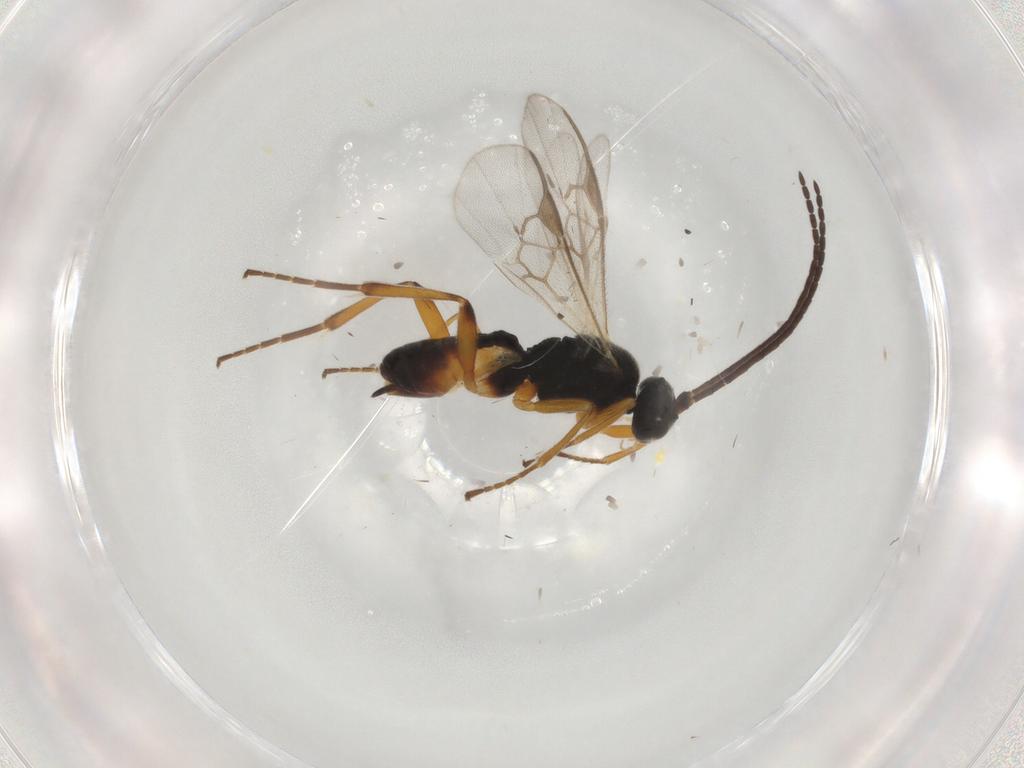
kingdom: Animalia
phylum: Arthropoda
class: Insecta
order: Hymenoptera
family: Braconidae
